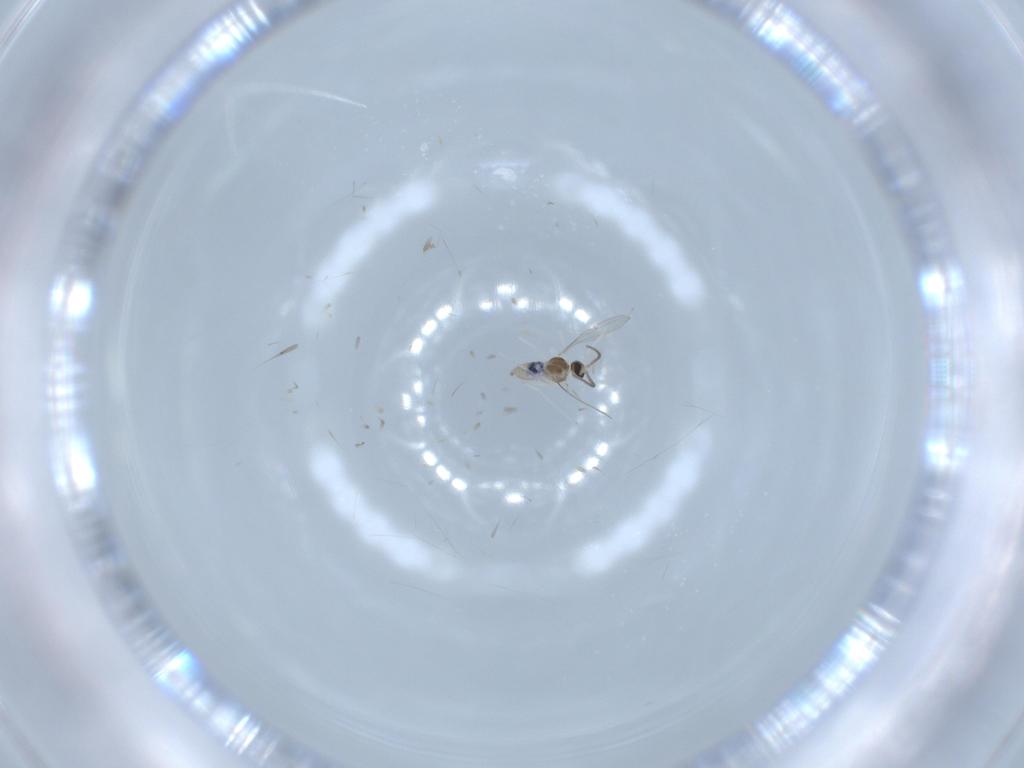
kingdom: Animalia
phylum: Arthropoda
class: Insecta
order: Diptera
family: Cecidomyiidae
